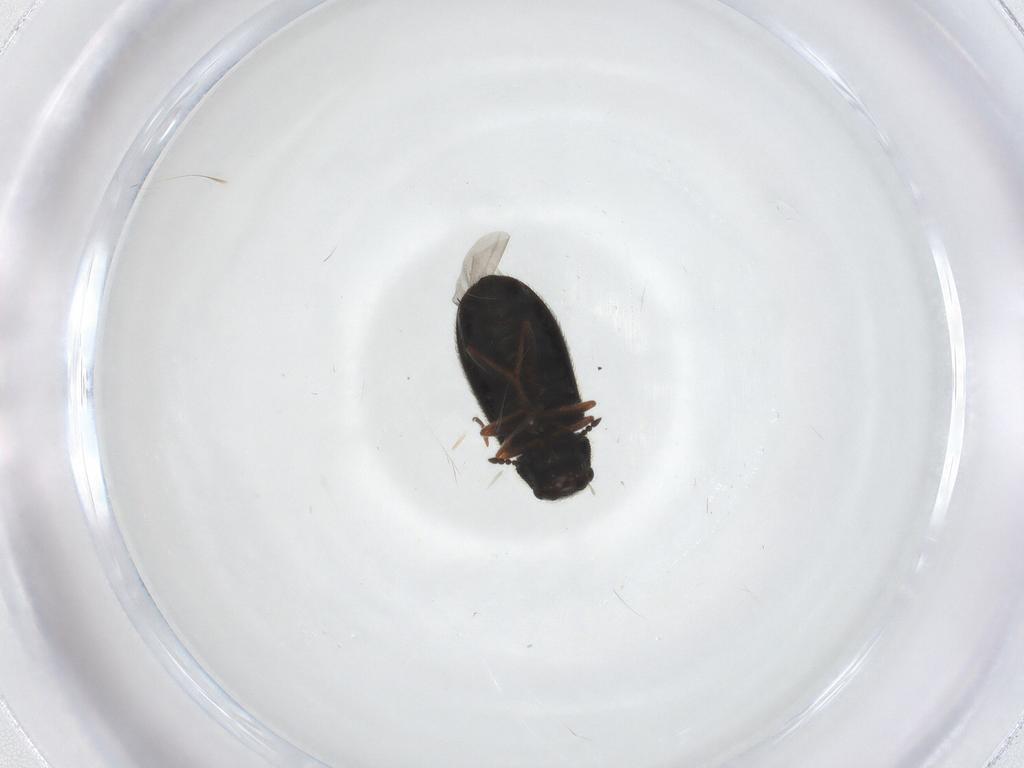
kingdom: Animalia
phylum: Arthropoda
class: Insecta
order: Coleoptera
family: Melyridae
